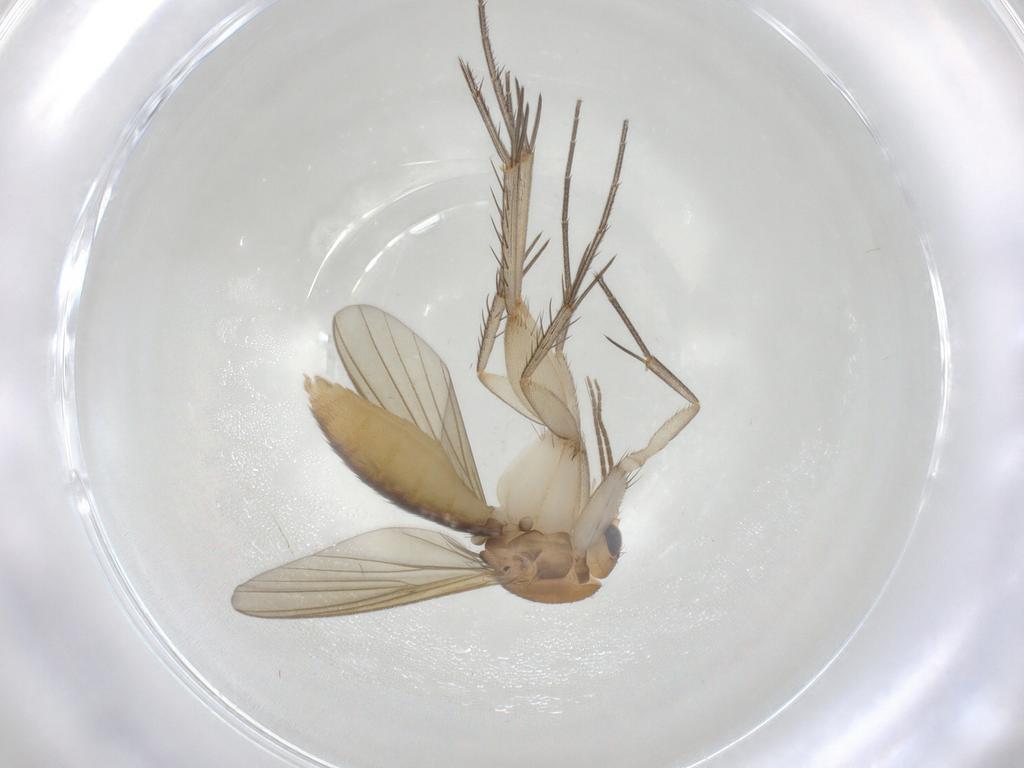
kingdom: Animalia
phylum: Arthropoda
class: Insecta
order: Diptera
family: Mycetophilidae
